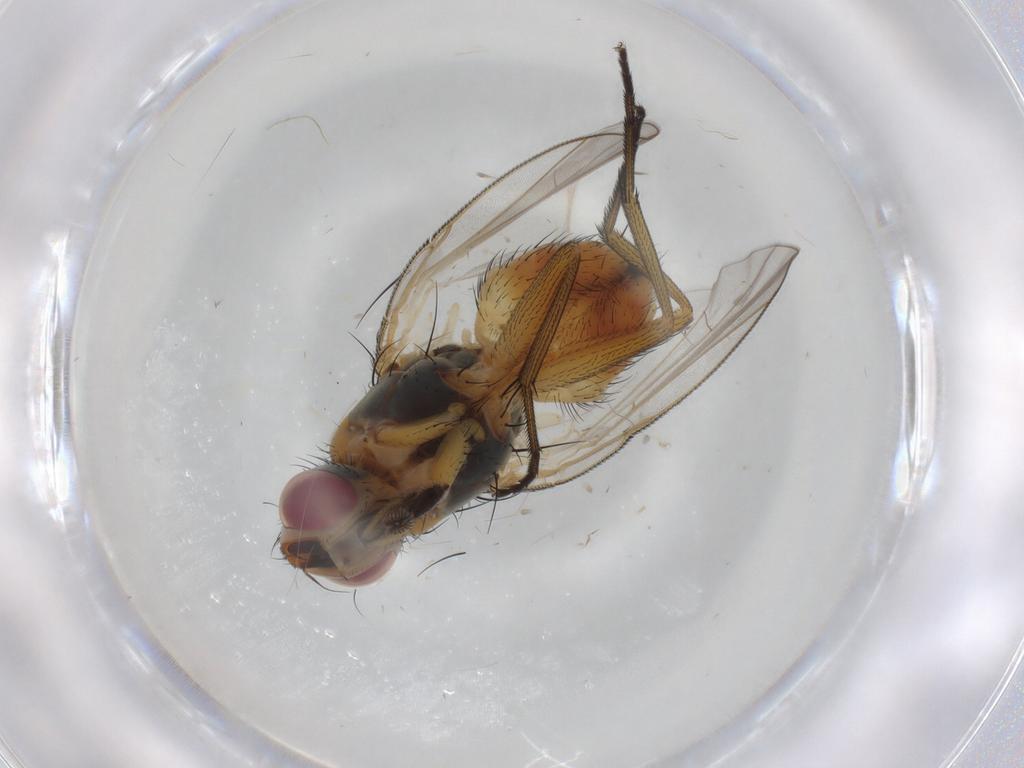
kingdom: Animalia
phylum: Arthropoda
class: Insecta
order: Diptera
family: Muscidae
